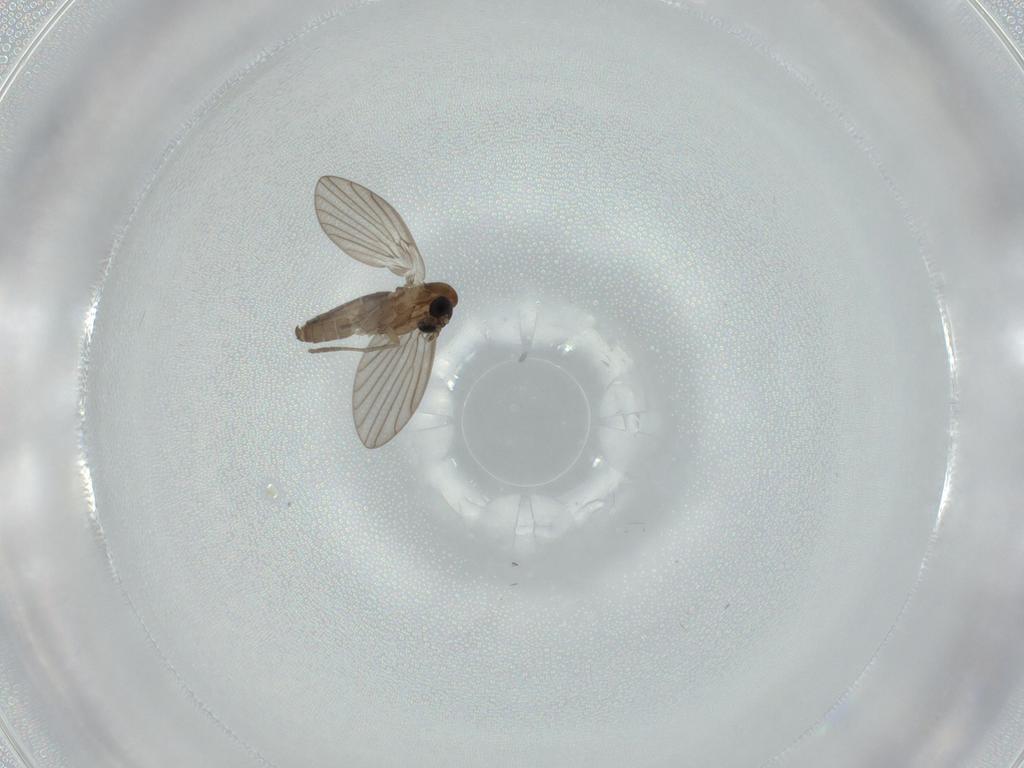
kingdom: Animalia
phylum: Arthropoda
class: Insecta
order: Diptera
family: Psychodidae
